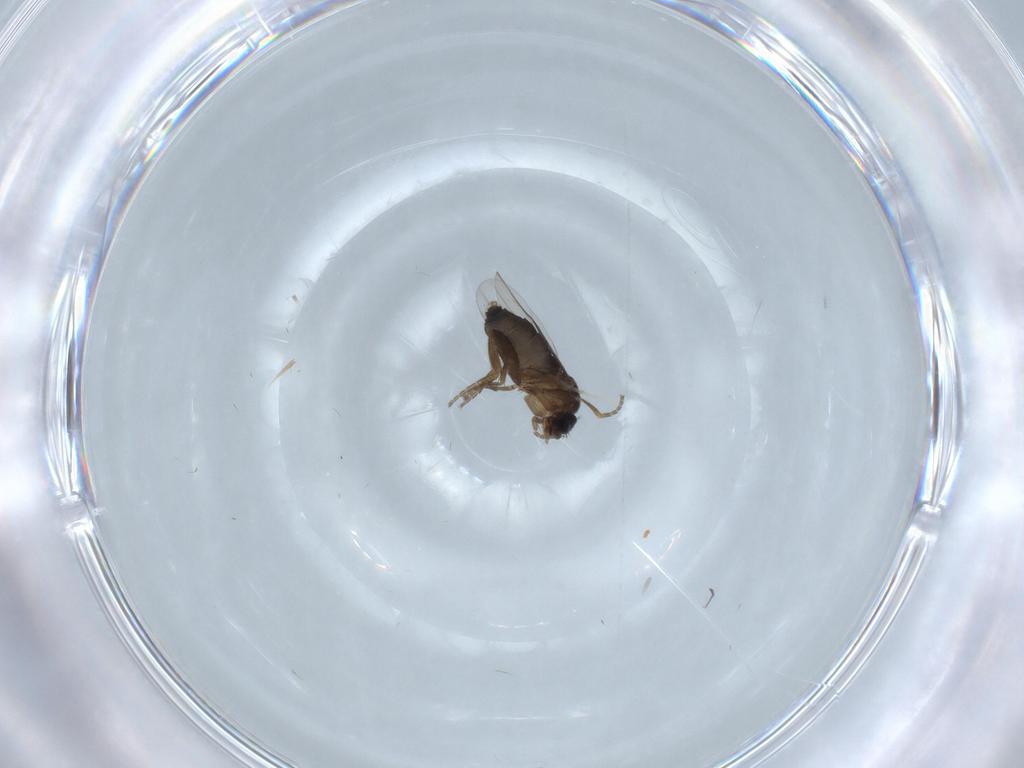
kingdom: Animalia
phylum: Arthropoda
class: Insecta
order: Diptera
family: Phoridae
